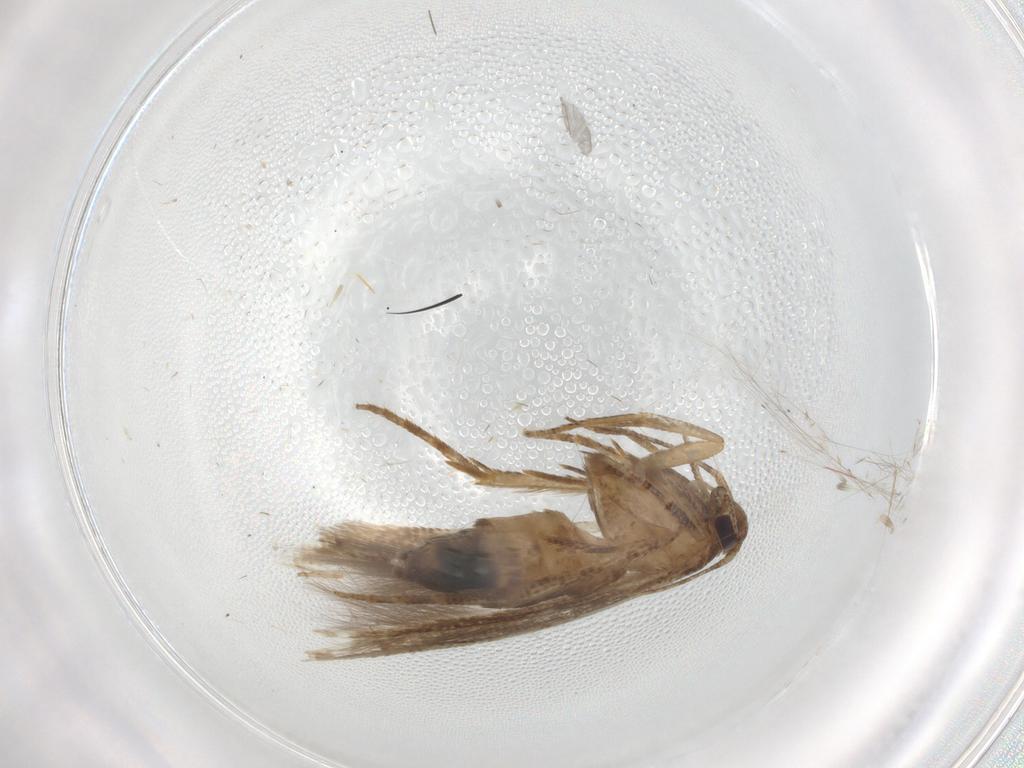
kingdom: Animalia
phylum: Arthropoda
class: Insecta
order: Lepidoptera
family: Cosmopterigidae
